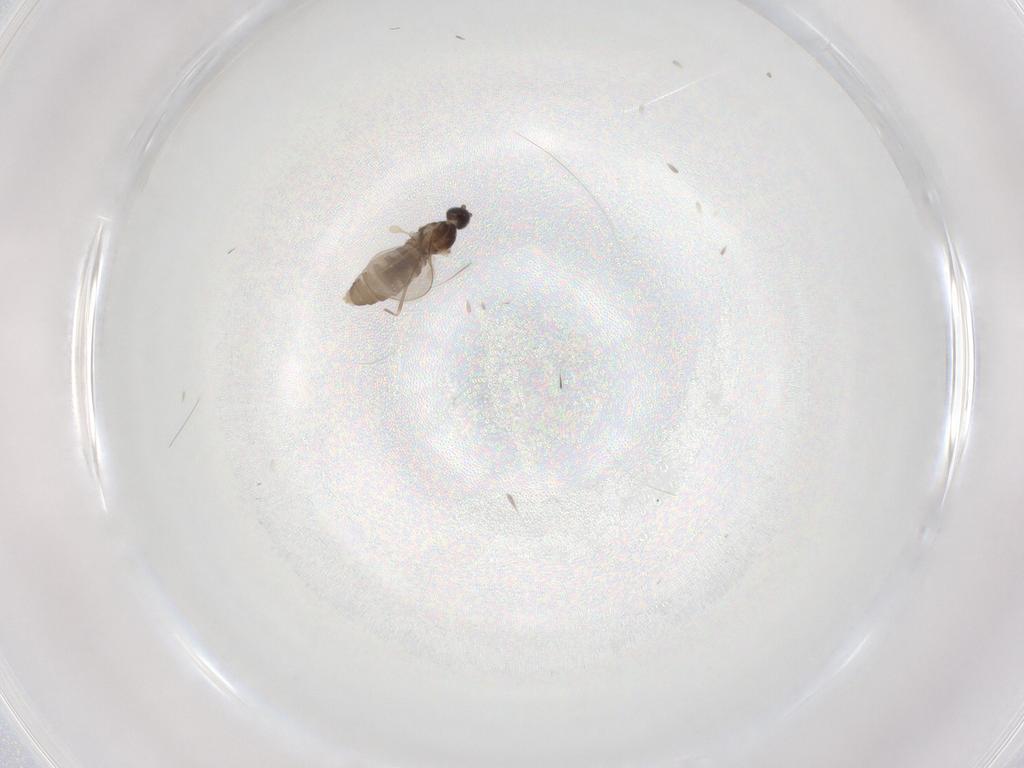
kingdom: Animalia
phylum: Arthropoda
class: Insecta
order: Diptera
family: Cecidomyiidae
